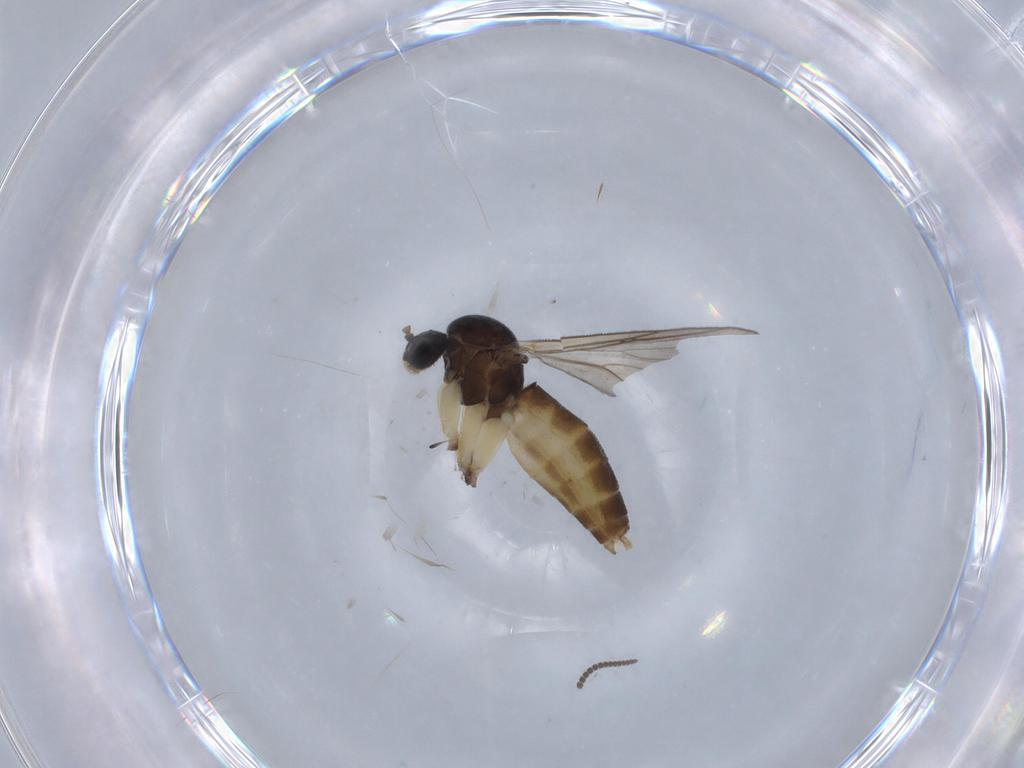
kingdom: Animalia
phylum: Arthropoda
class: Insecta
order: Diptera
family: Mycetophilidae
